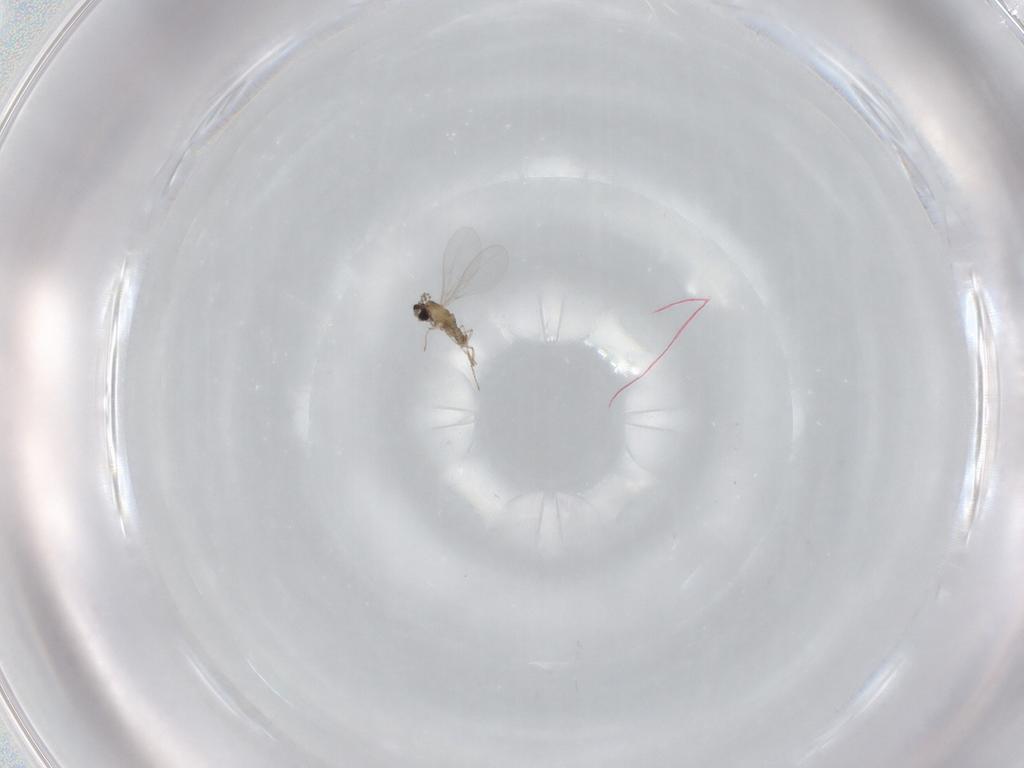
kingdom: Animalia
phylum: Arthropoda
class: Insecta
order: Diptera
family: Cecidomyiidae
